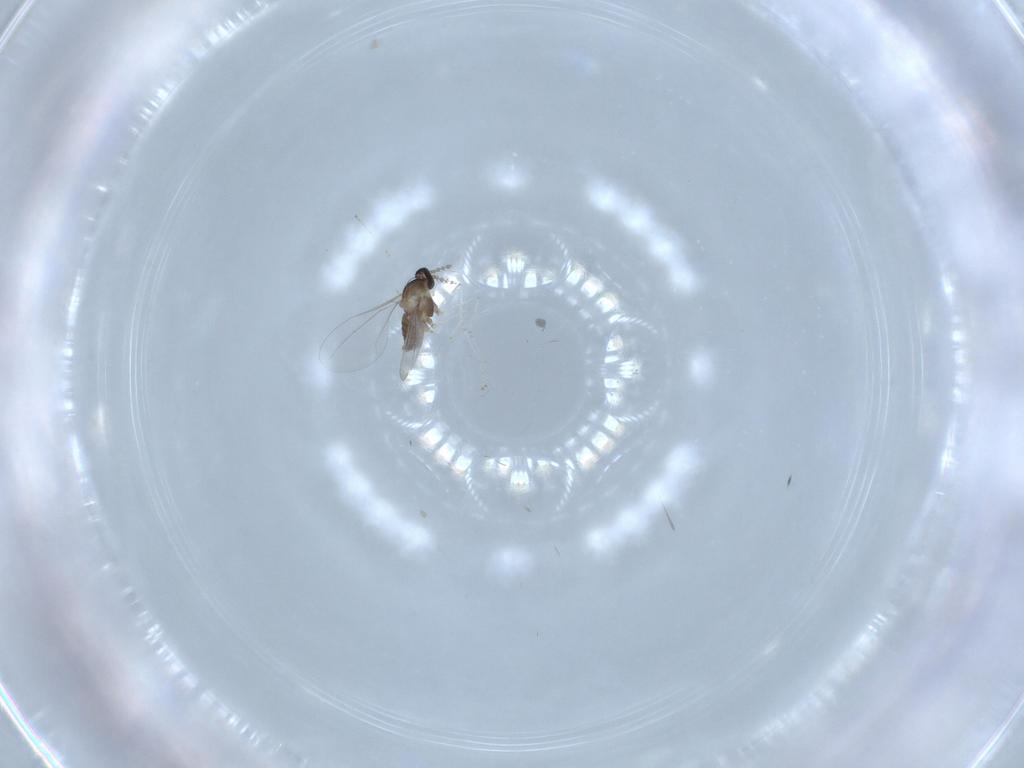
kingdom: Animalia
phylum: Arthropoda
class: Insecta
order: Diptera
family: Cecidomyiidae
